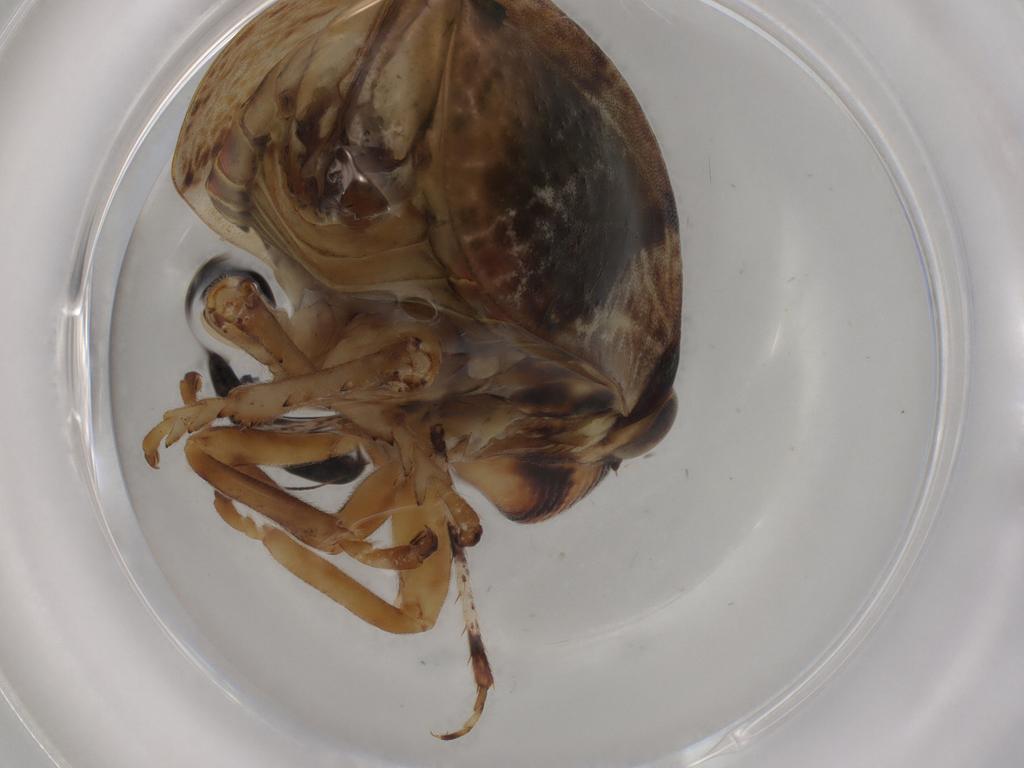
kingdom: Animalia
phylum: Arthropoda
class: Insecta
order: Hemiptera
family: Aphrophoridae
